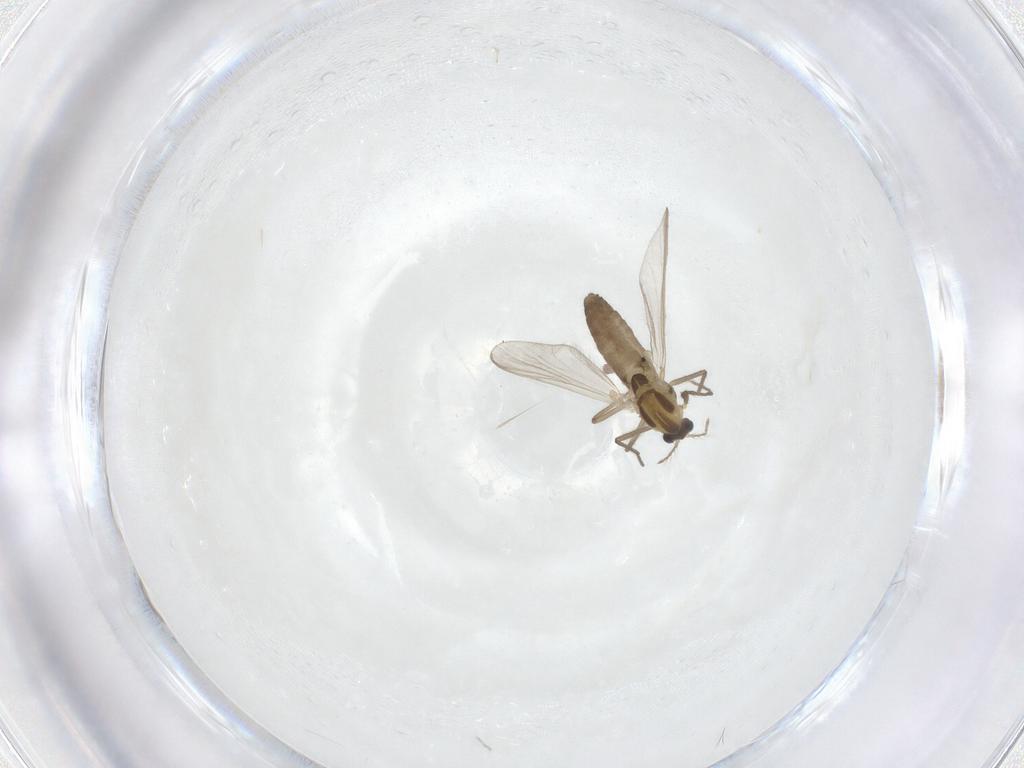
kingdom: Animalia
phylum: Arthropoda
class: Insecta
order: Diptera
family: Chironomidae
